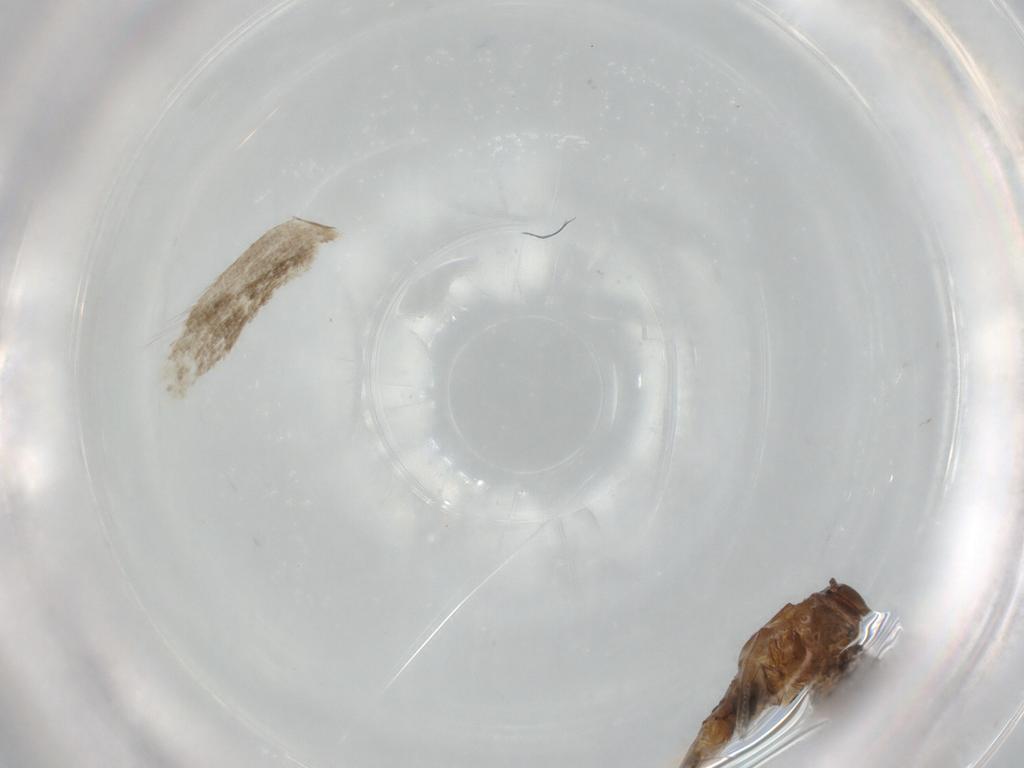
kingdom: Animalia
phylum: Arthropoda
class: Insecta
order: Lepidoptera
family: Elachistidae
